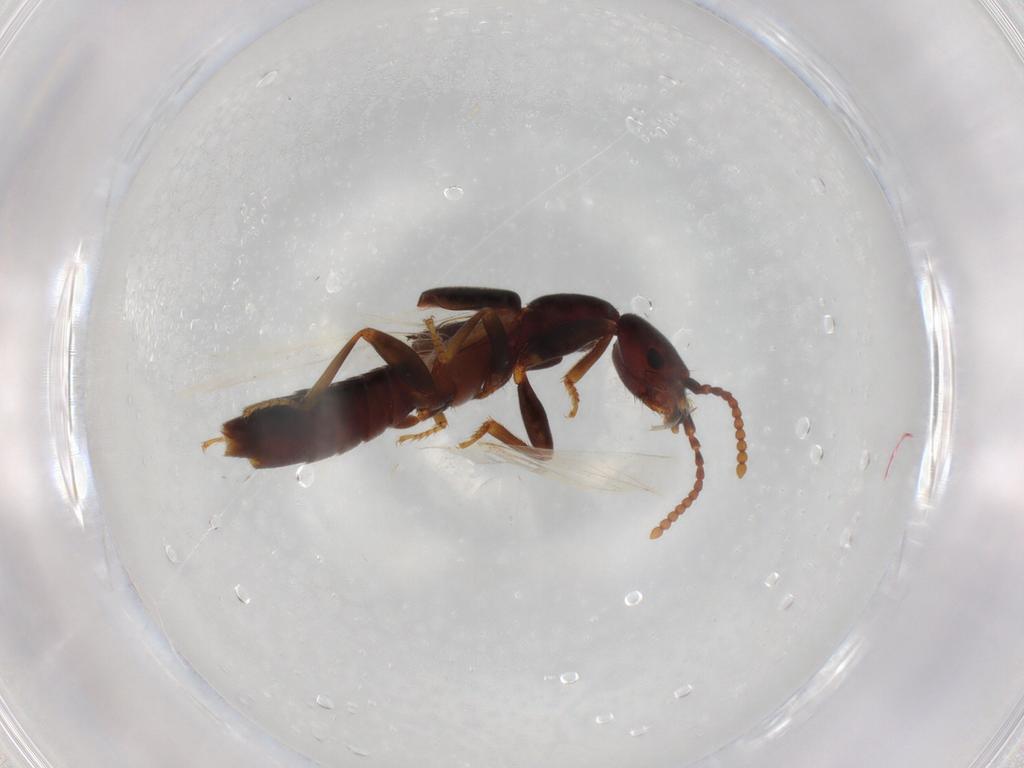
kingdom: Animalia
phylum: Arthropoda
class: Insecta
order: Coleoptera
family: Staphylinidae
